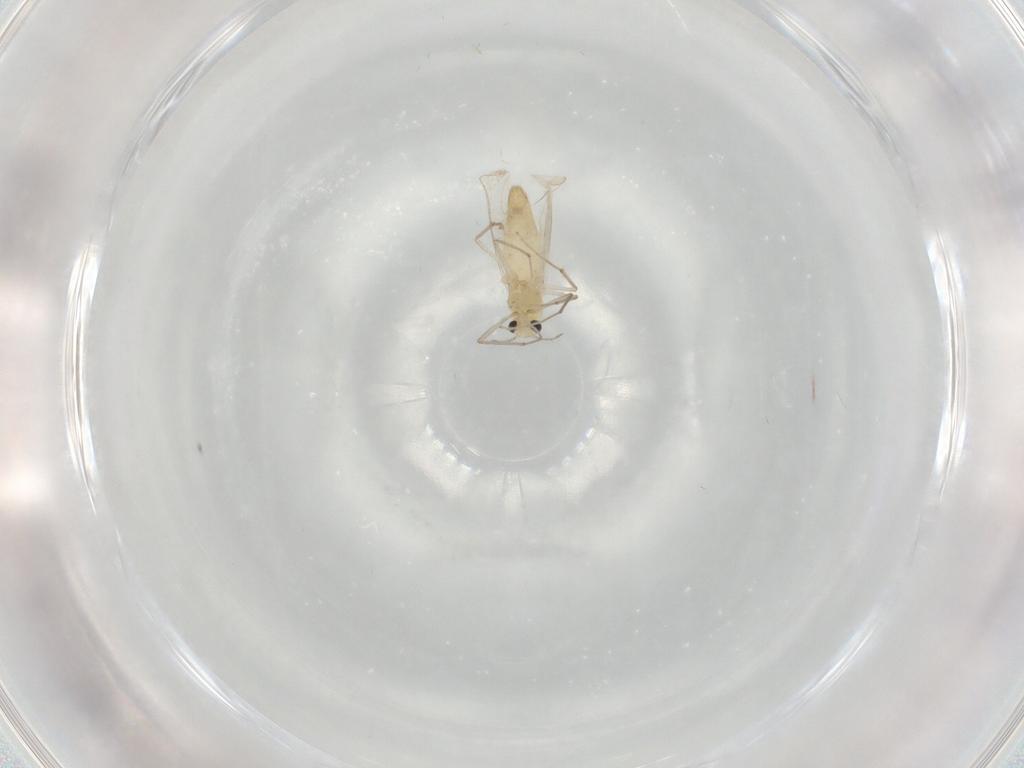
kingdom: Animalia
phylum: Arthropoda
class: Insecta
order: Diptera
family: Chironomidae
